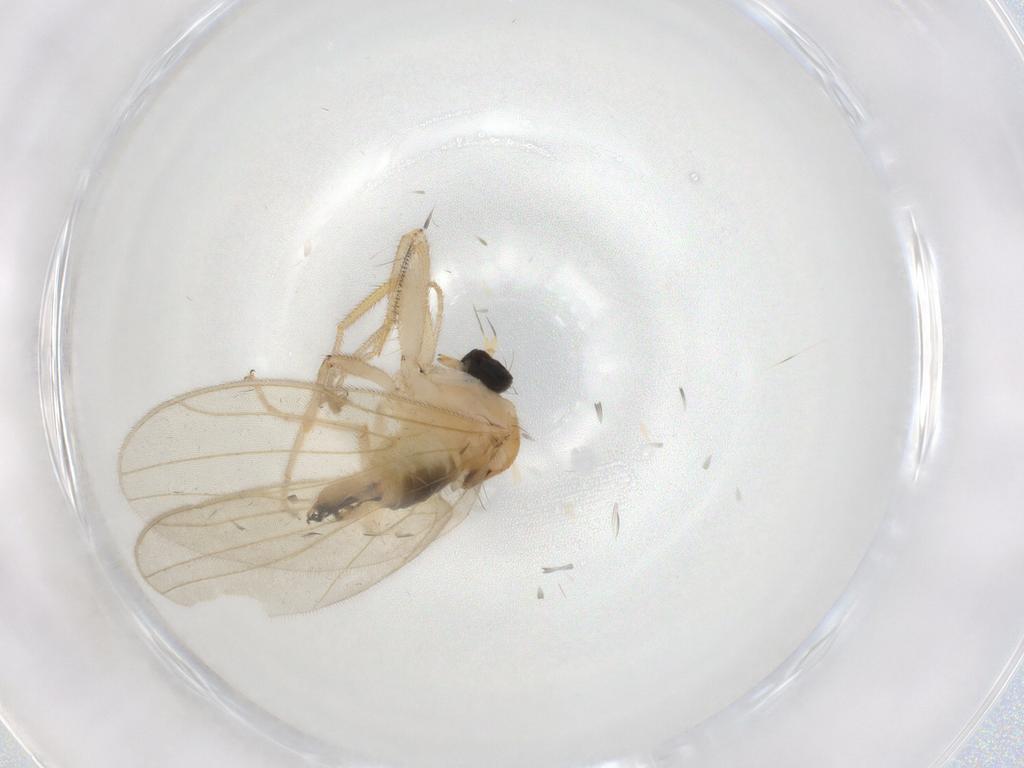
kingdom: Animalia
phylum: Arthropoda
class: Insecta
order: Diptera
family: Hybotidae
